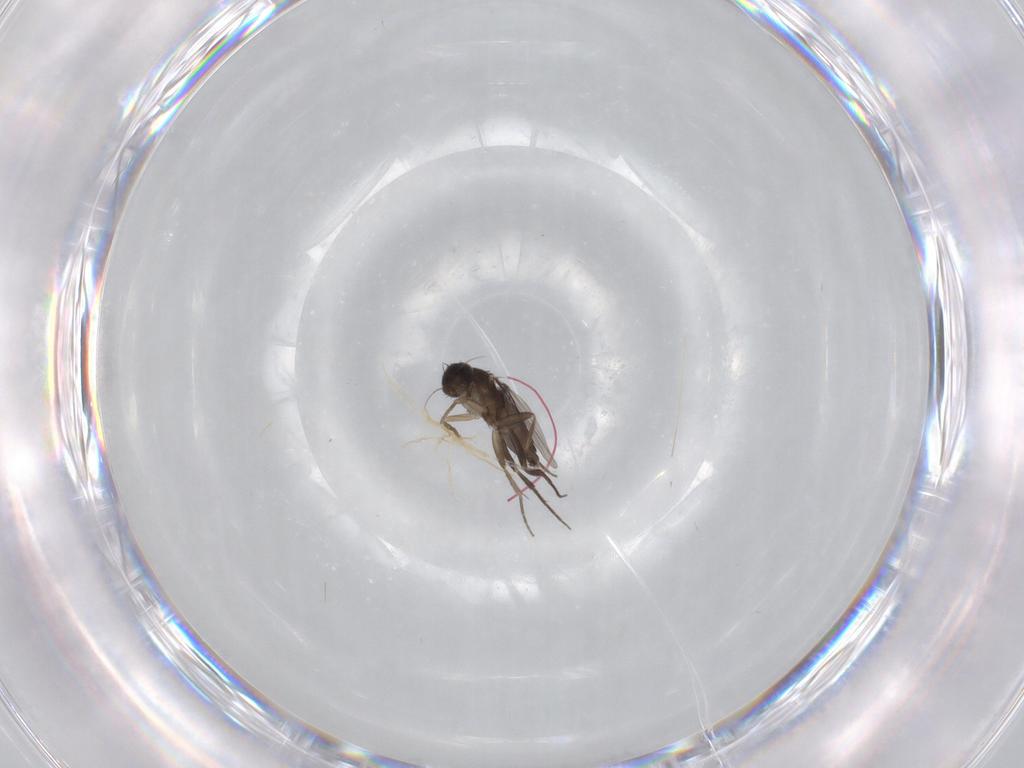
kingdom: Animalia
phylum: Arthropoda
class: Insecta
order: Diptera
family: Phoridae
